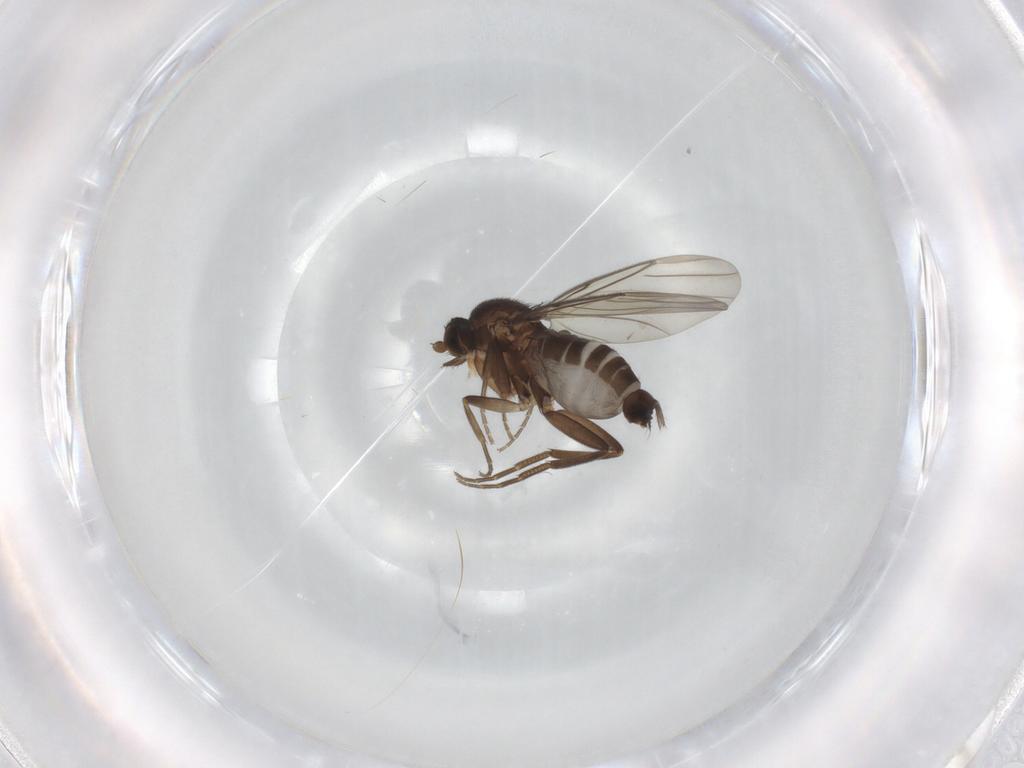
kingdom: Animalia
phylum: Arthropoda
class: Insecta
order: Diptera
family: Phoridae
